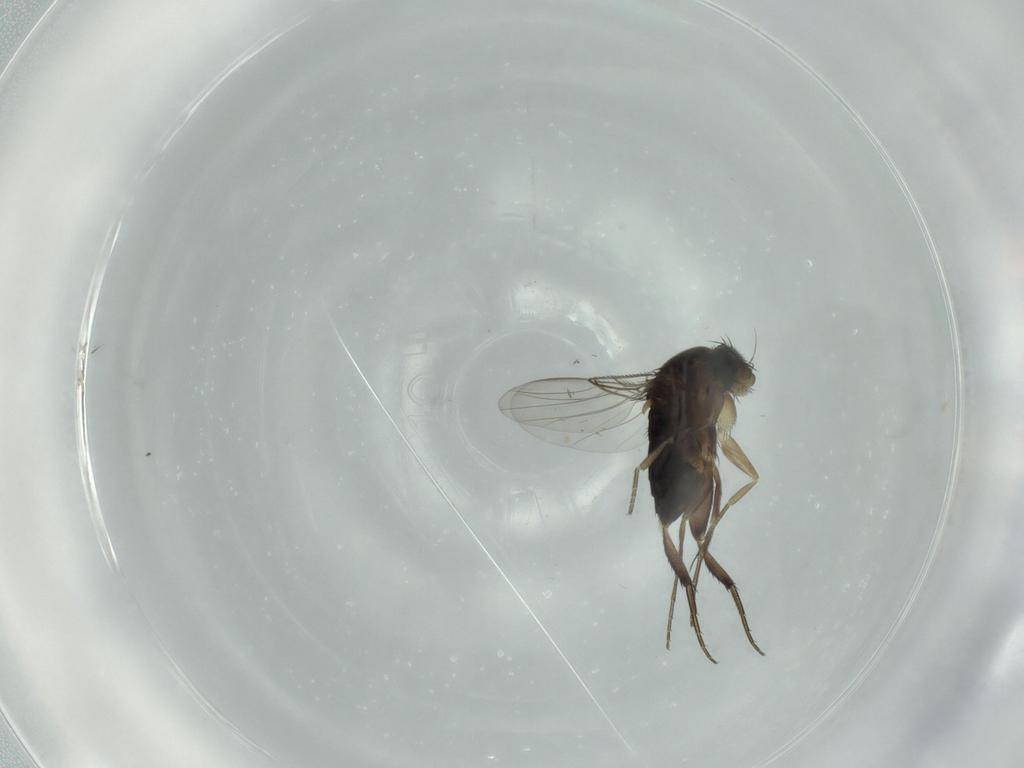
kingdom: Animalia
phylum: Arthropoda
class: Insecta
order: Diptera
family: Phoridae
